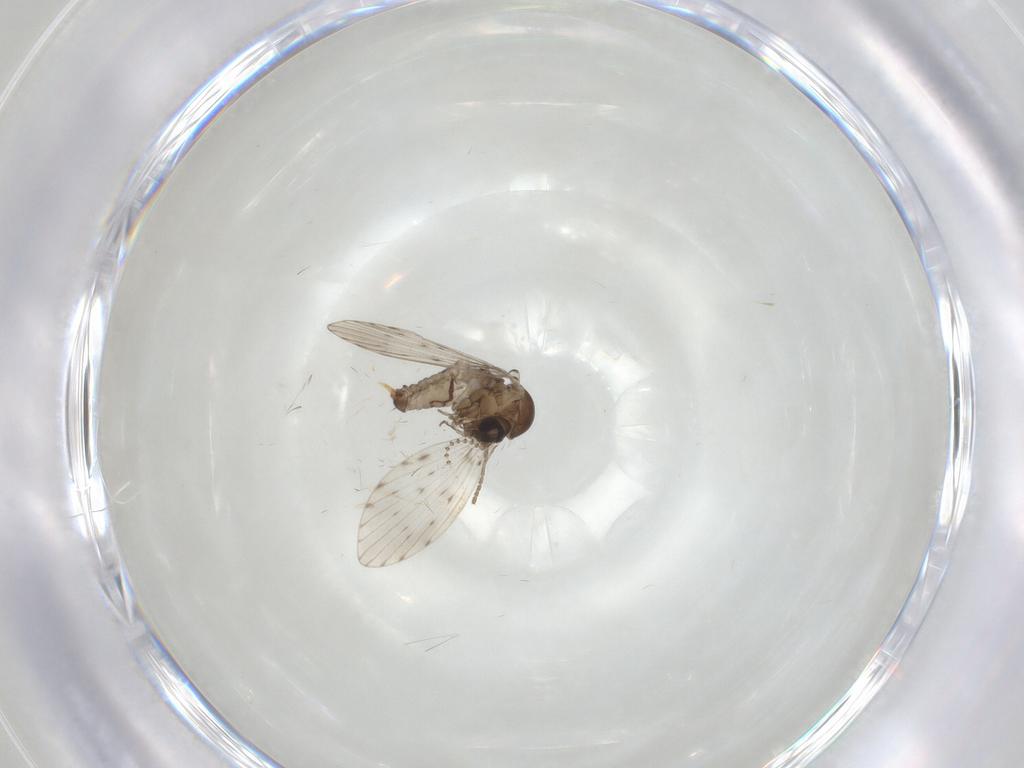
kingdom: Animalia
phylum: Arthropoda
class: Insecta
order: Diptera
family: Psychodidae
